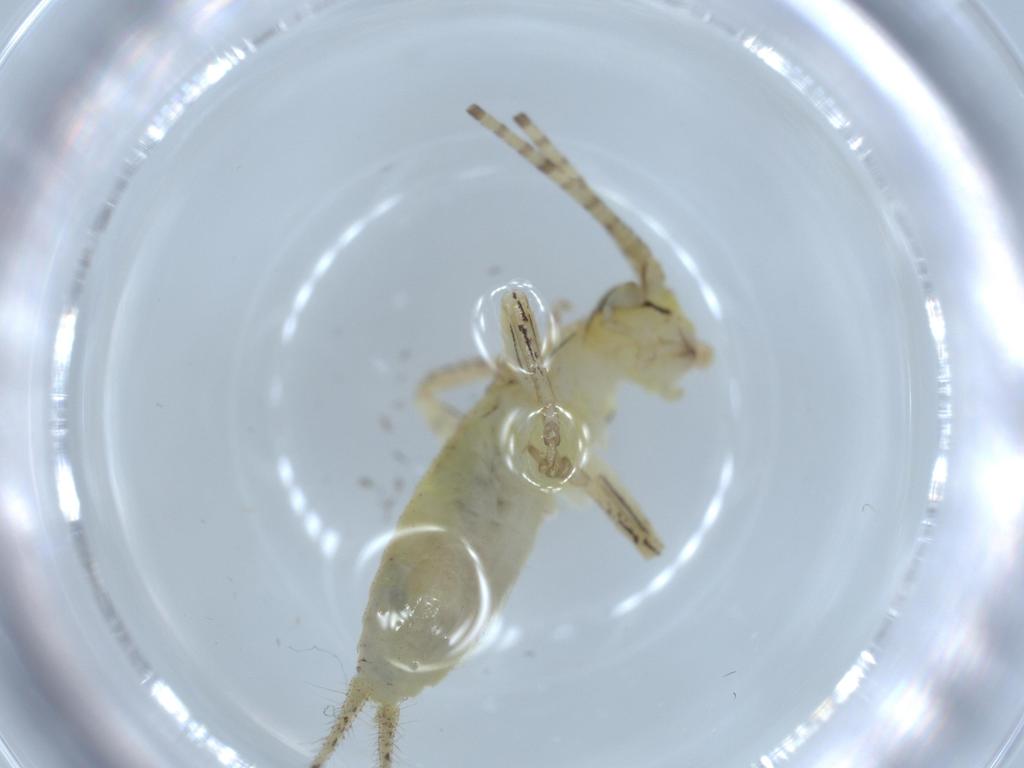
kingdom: Animalia
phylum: Arthropoda
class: Insecta
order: Orthoptera
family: Gryllidae
